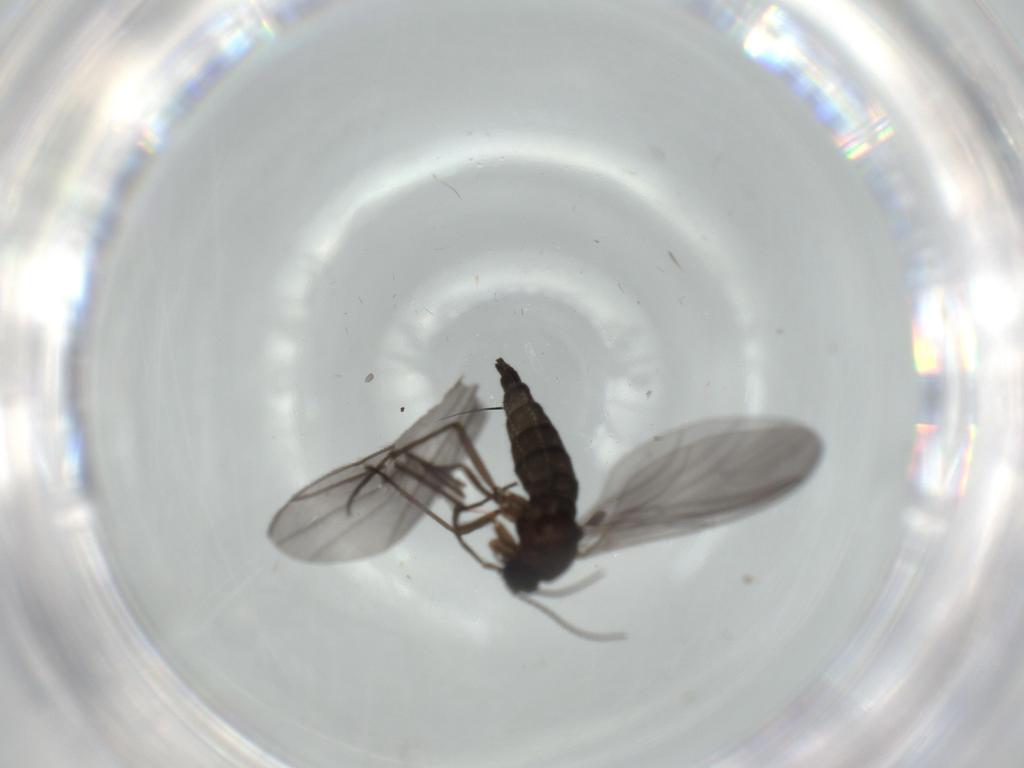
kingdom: Animalia
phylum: Arthropoda
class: Insecta
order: Diptera
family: Sciaridae
